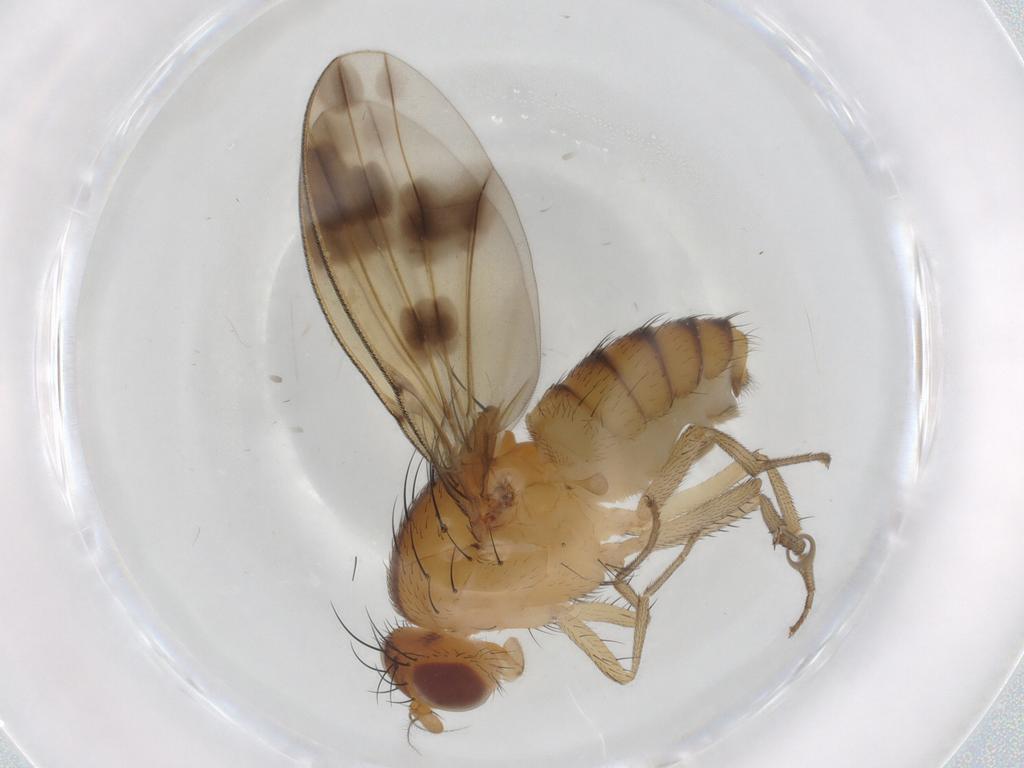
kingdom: Animalia
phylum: Arthropoda
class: Insecta
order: Diptera
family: Lauxaniidae
